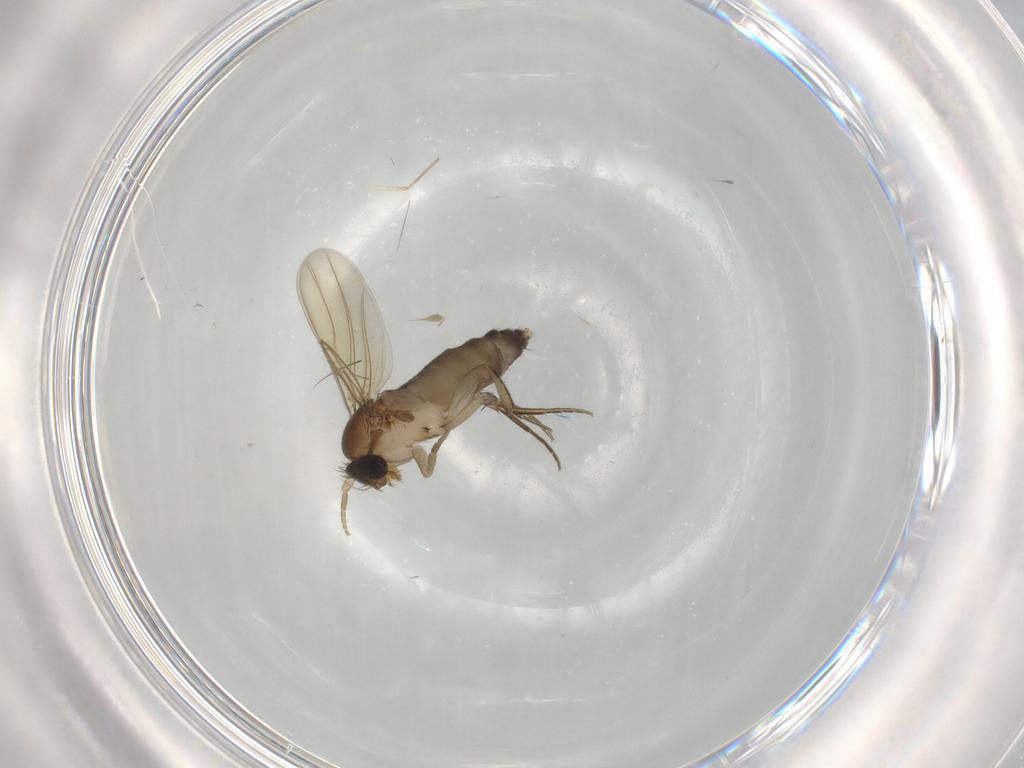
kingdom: Animalia
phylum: Arthropoda
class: Insecta
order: Diptera
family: Phoridae
